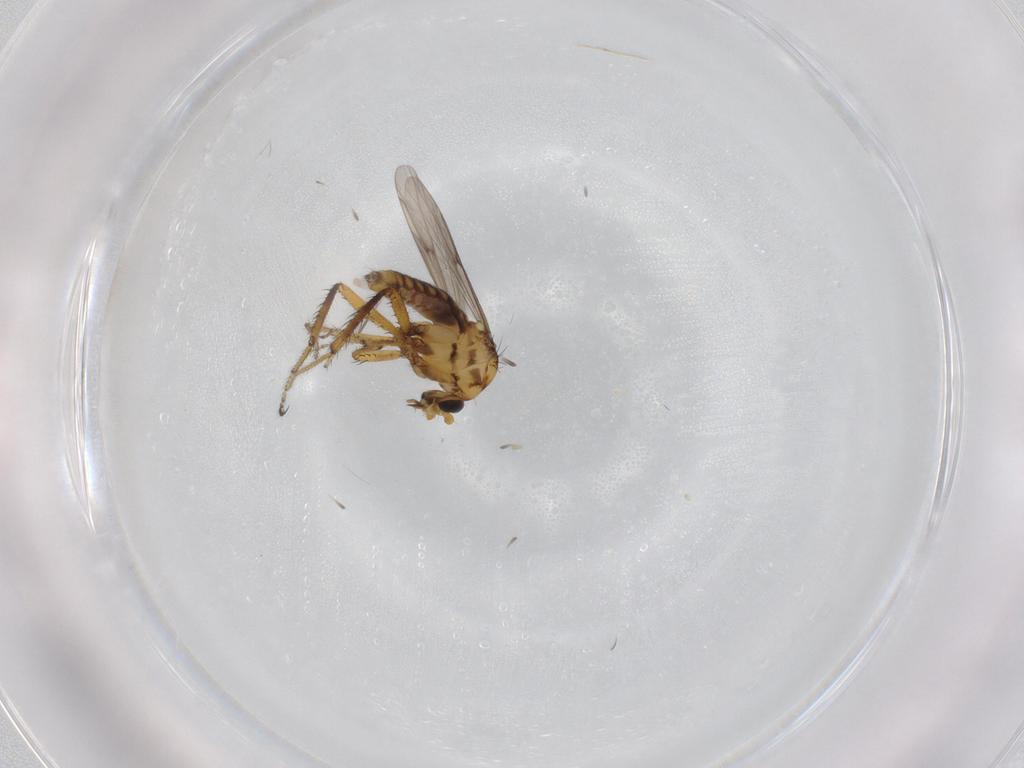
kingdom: Animalia
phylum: Arthropoda
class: Insecta
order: Diptera
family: Ceratopogonidae
